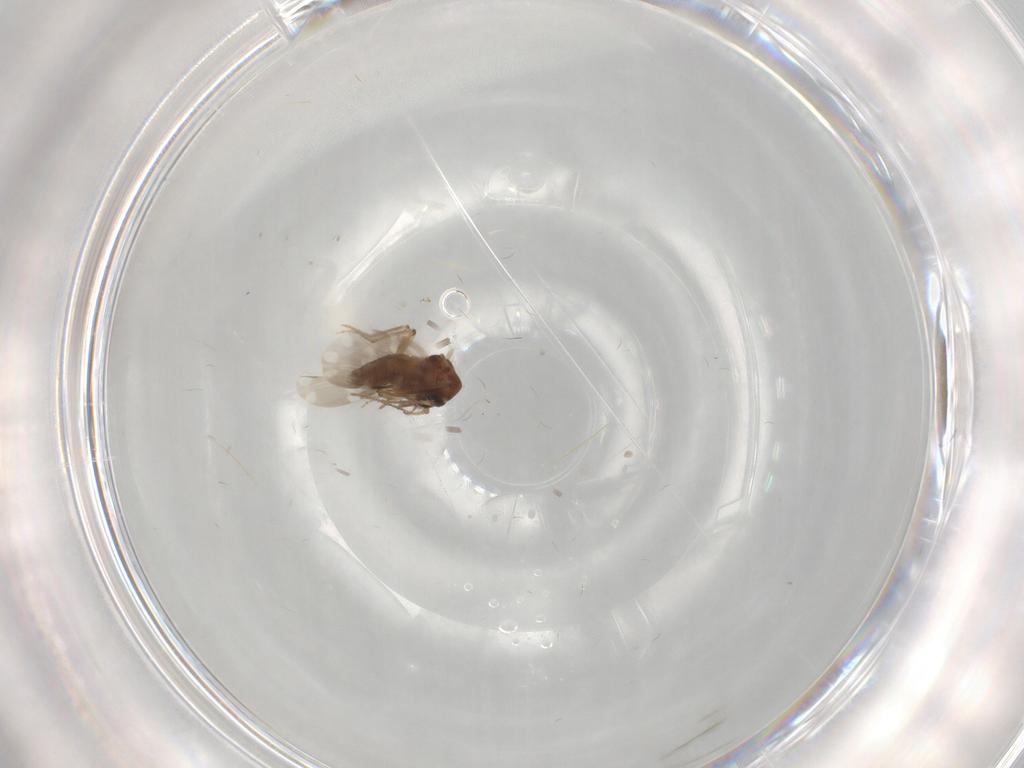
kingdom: Animalia
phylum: Arthropoda
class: Insecta
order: Diptera
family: Ceratopogonidae
